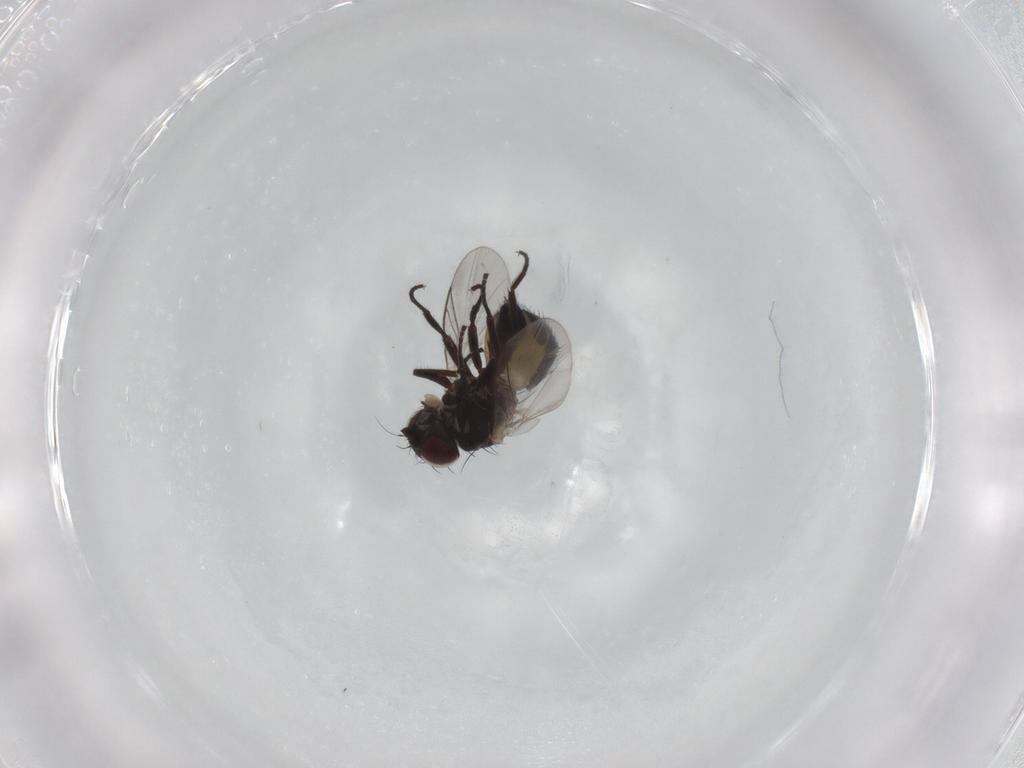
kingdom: Animalia
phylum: Arthropoda
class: Insecta
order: Diptera
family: Agromyzidae
